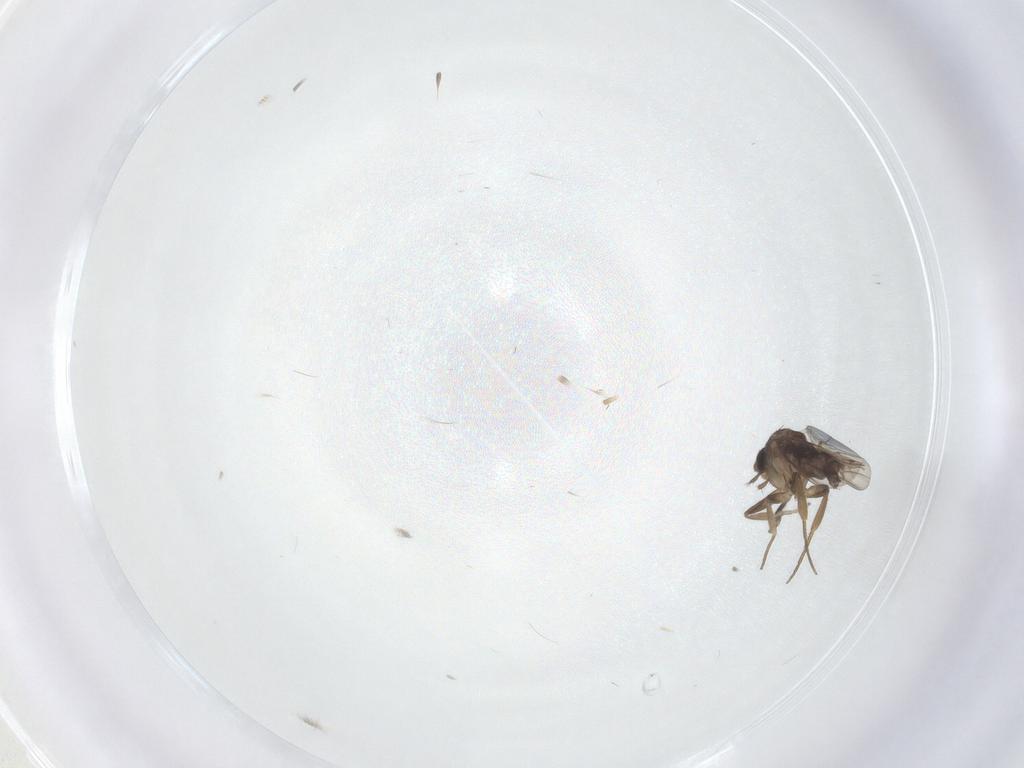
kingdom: Animalia
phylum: Arthropoda
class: Insecta
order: Diptera
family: Phoridae
